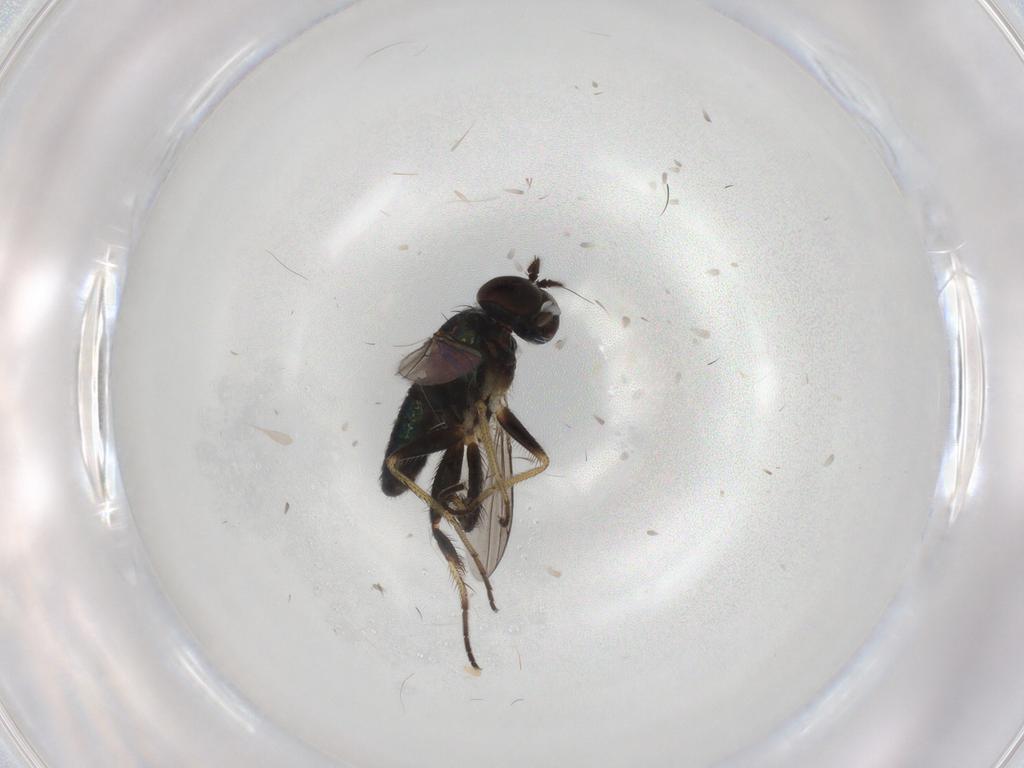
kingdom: Animalia
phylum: Arthropoda
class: Insecta
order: Diptera
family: Dolichopodidae
